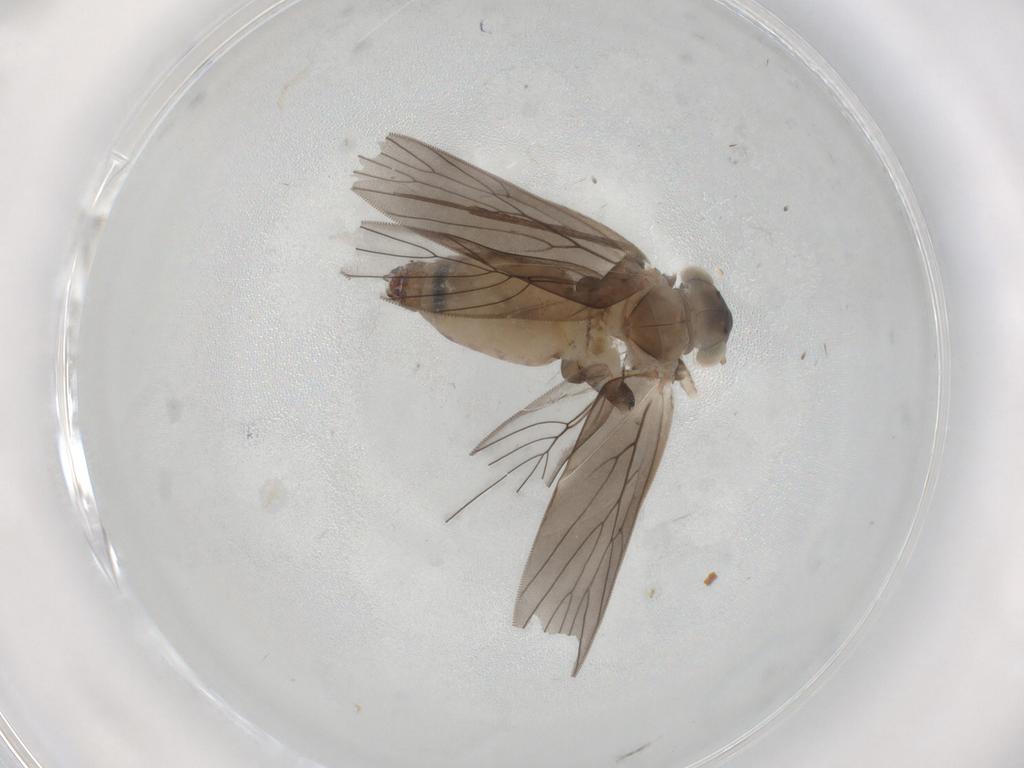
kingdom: Animalia
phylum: Arthropoda
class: Insecta
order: Psocodea
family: Lepidopsocidae
